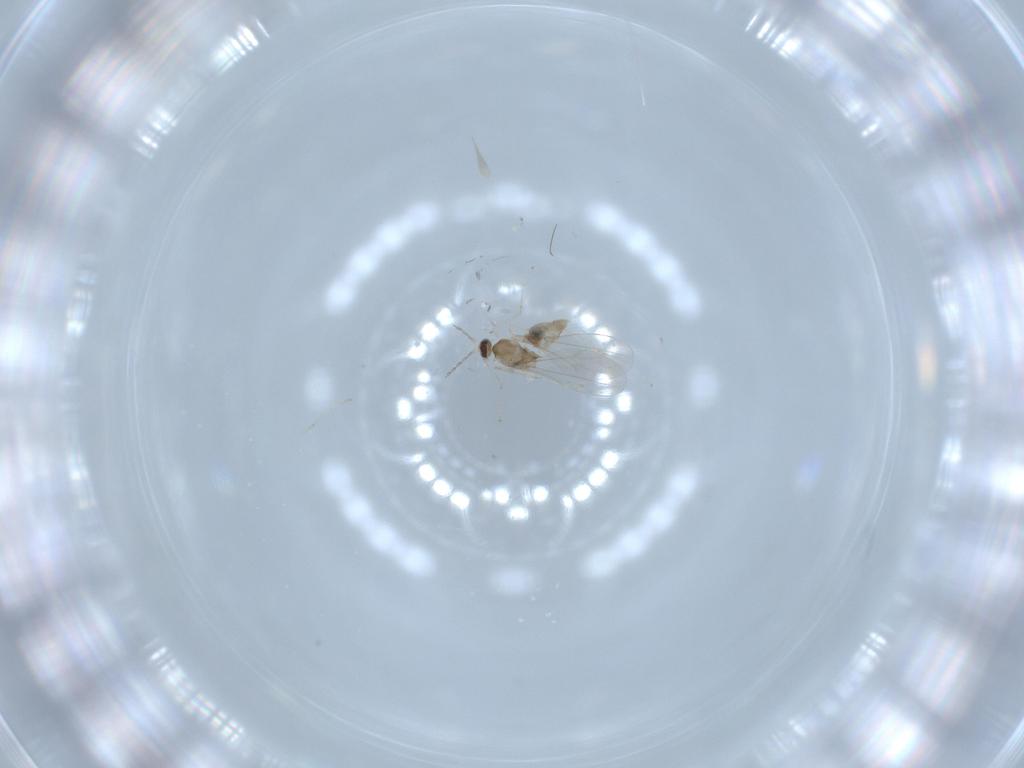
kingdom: Animalia
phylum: Arthropoda
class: Insecta
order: Diptera
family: Cecidomyiidae
